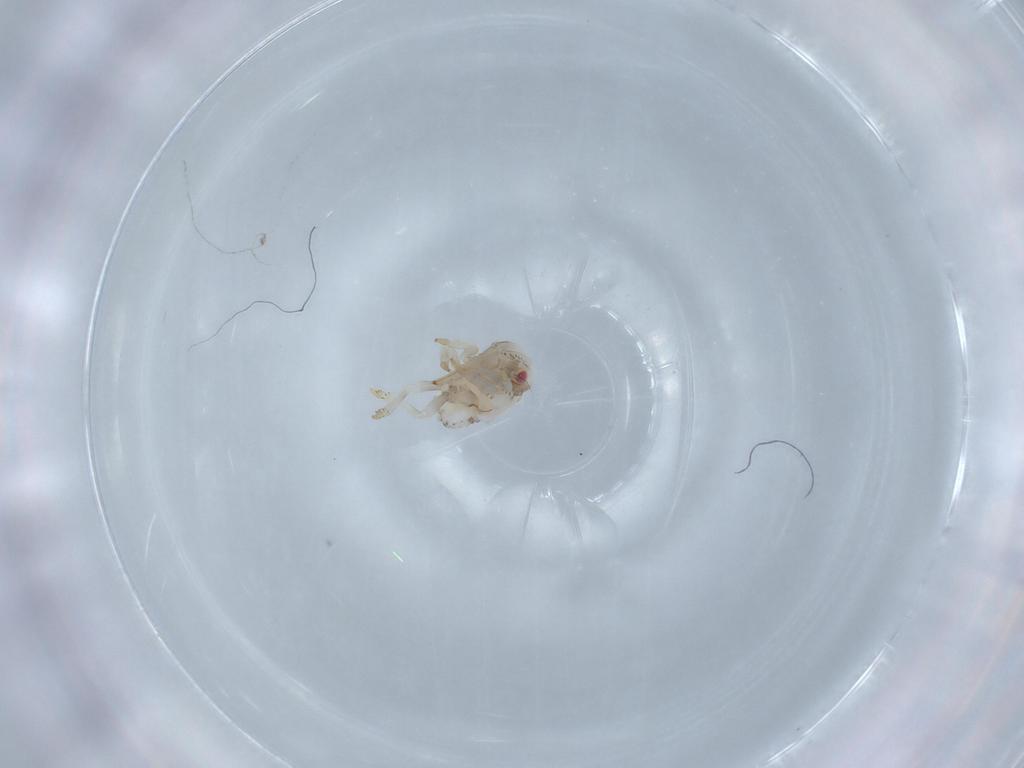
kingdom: Animalia
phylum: Arthropoda
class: Insecta
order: Hemiptera
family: Acanaloniidae
